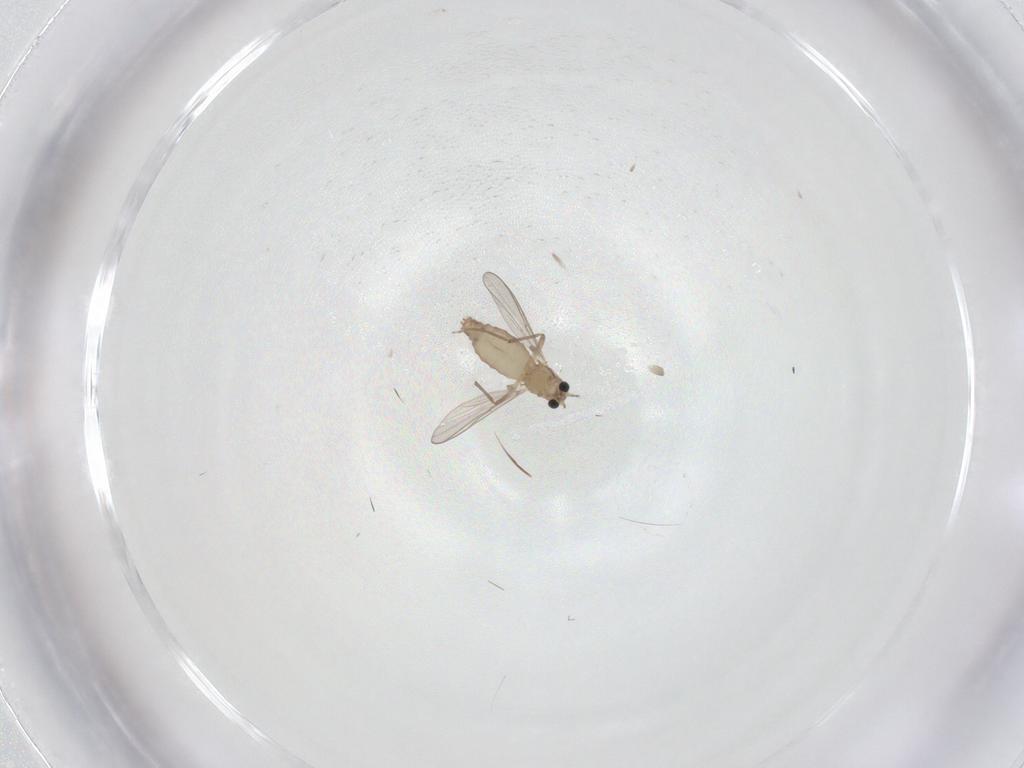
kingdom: Animalia
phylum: Arthropoda
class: Insecta
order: Diptera
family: Chironomidae
